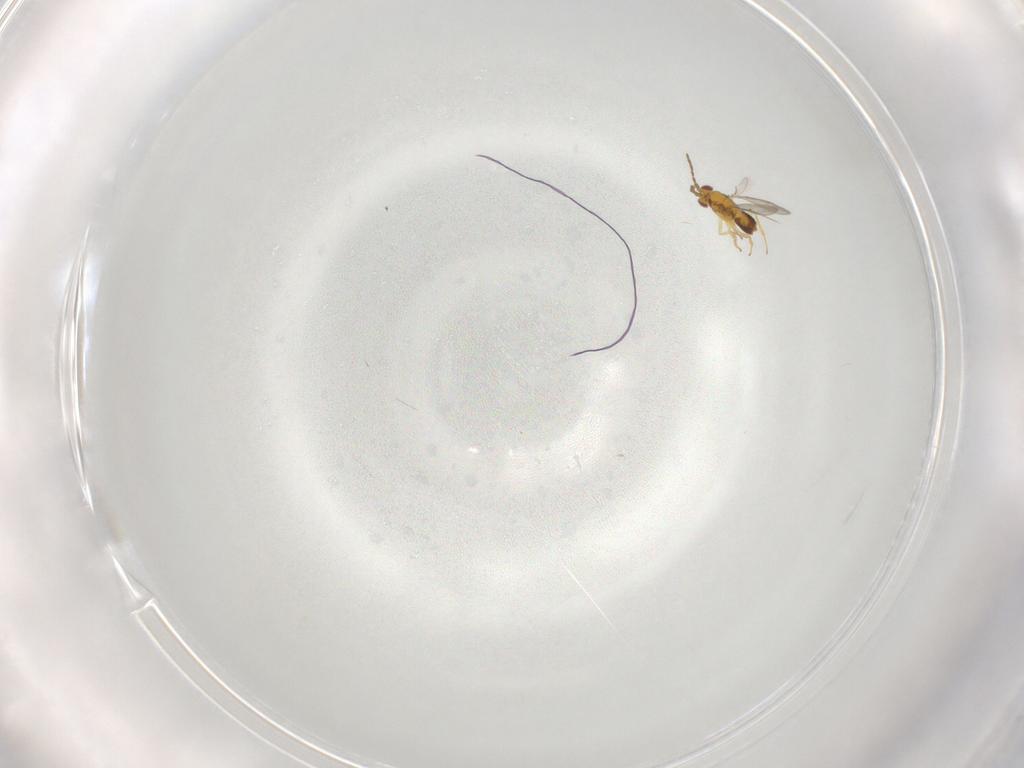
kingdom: Animalia
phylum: Arthropoda
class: Insecta
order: Hymenoptera
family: Aphelinidae
